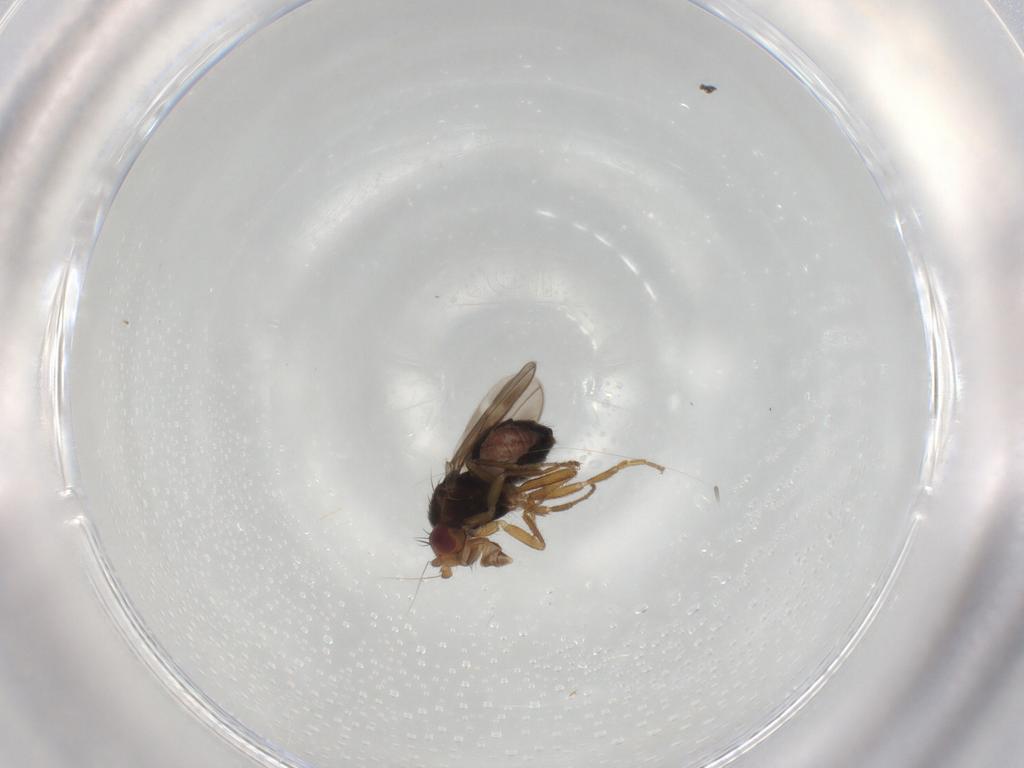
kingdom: Animalia
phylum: Arthropoda
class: Insecta
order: Diptera
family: Sphaeroceridae
